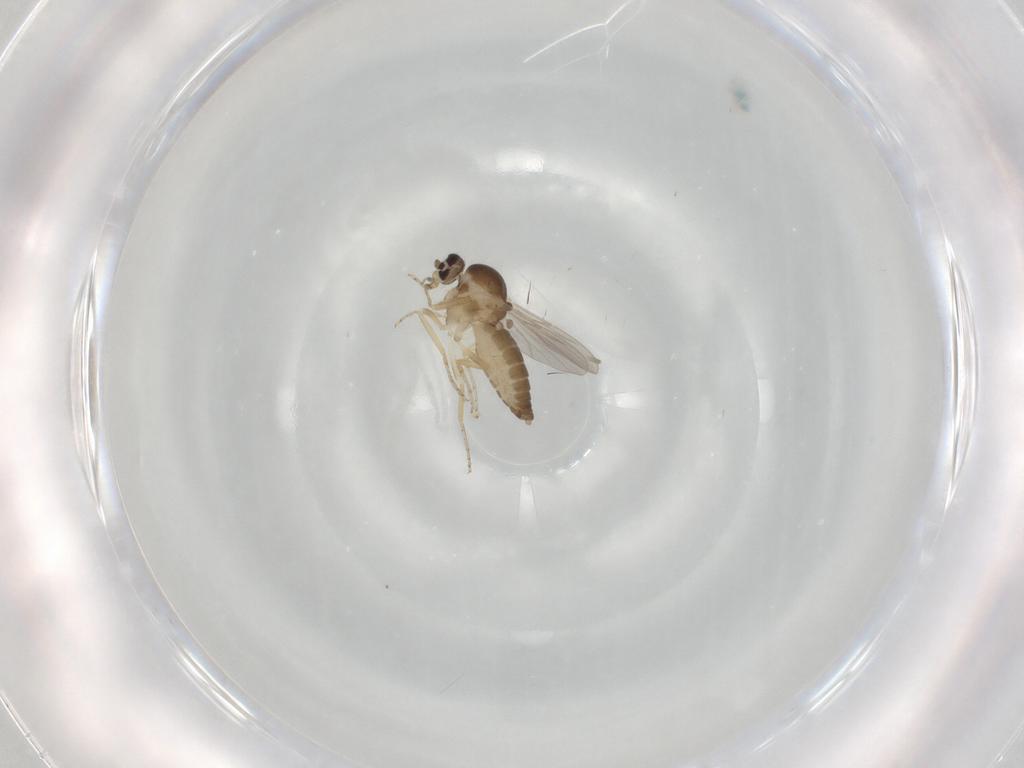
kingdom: Animalia
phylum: Arthropoda
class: Insecta
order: Diptera
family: Ceratopogonidae
